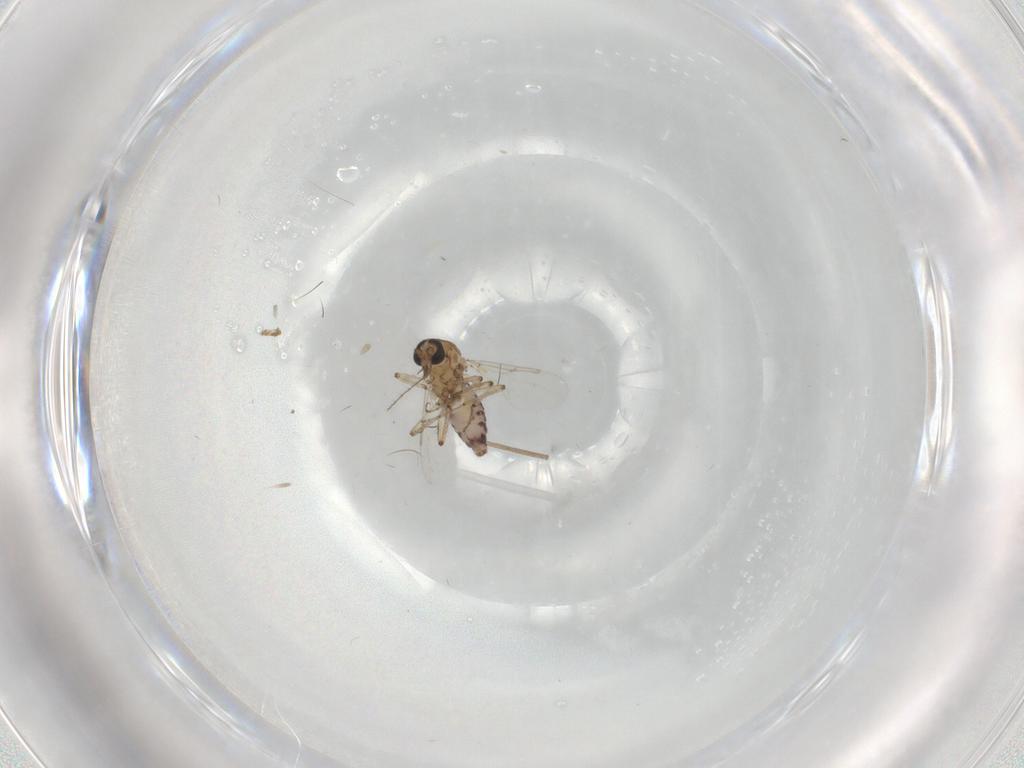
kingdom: Animalia
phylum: Arthropoda
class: Insecta
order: Diptera
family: Ceratopogonidae
